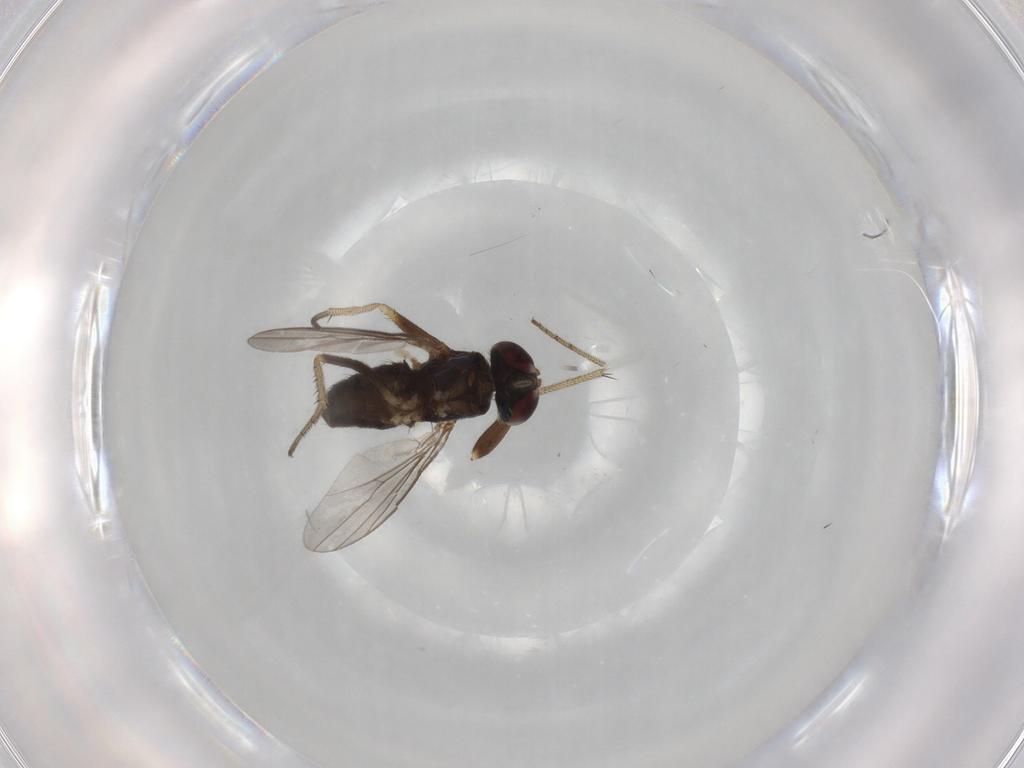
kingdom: Animalia
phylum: Arthropoda
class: Insecta
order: Diptera
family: Dolichopodidae
